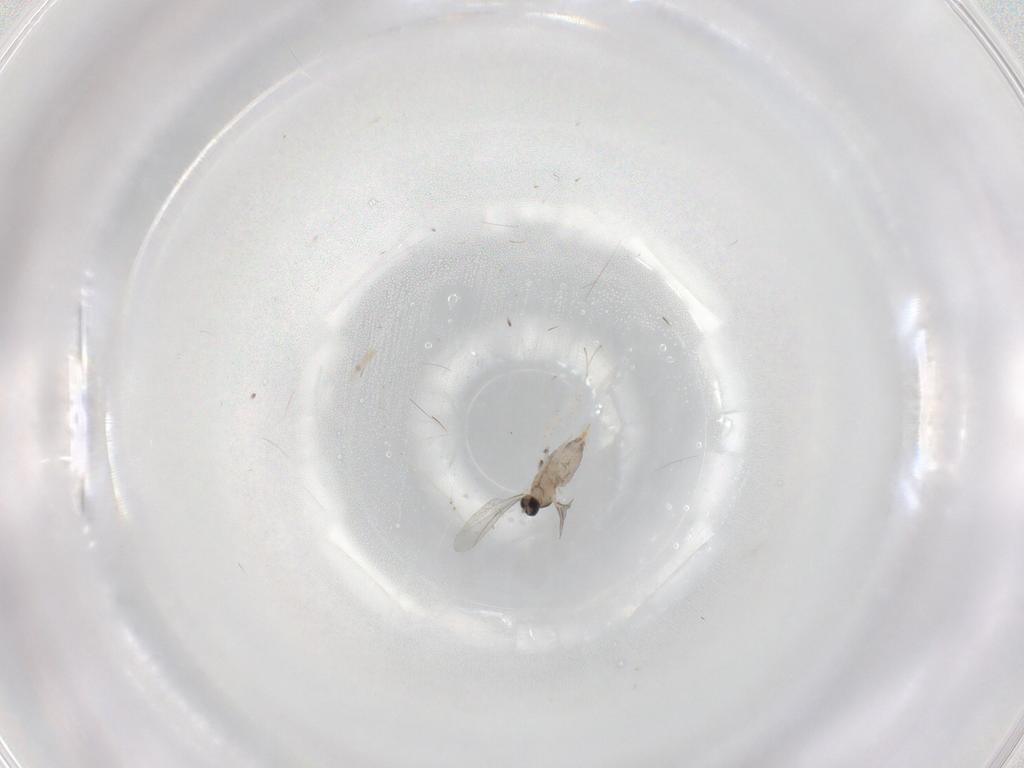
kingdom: Animalia
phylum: Arthropoda
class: Insecta
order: Diptera
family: Cecidomyiidae
